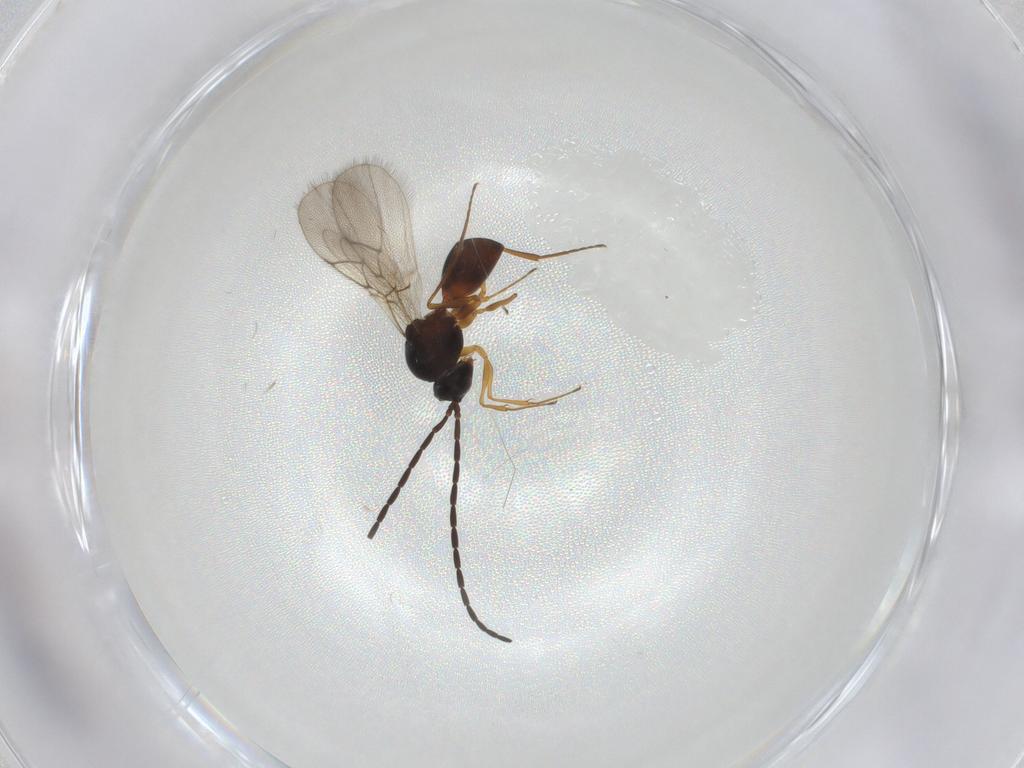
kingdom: Animalia
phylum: Arthropoda
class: Insecta
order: Hymenoptera
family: Figitidae
